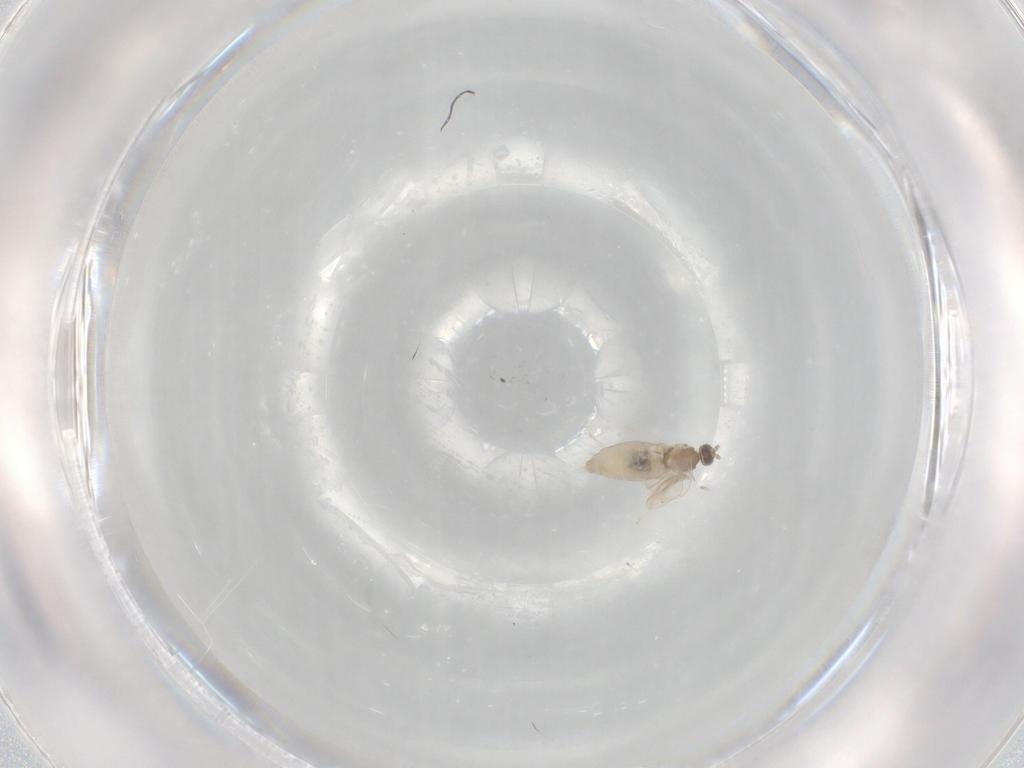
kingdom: Animalia
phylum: Arthropoda
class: Insecta
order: Diptera
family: Cecidomyiidae
